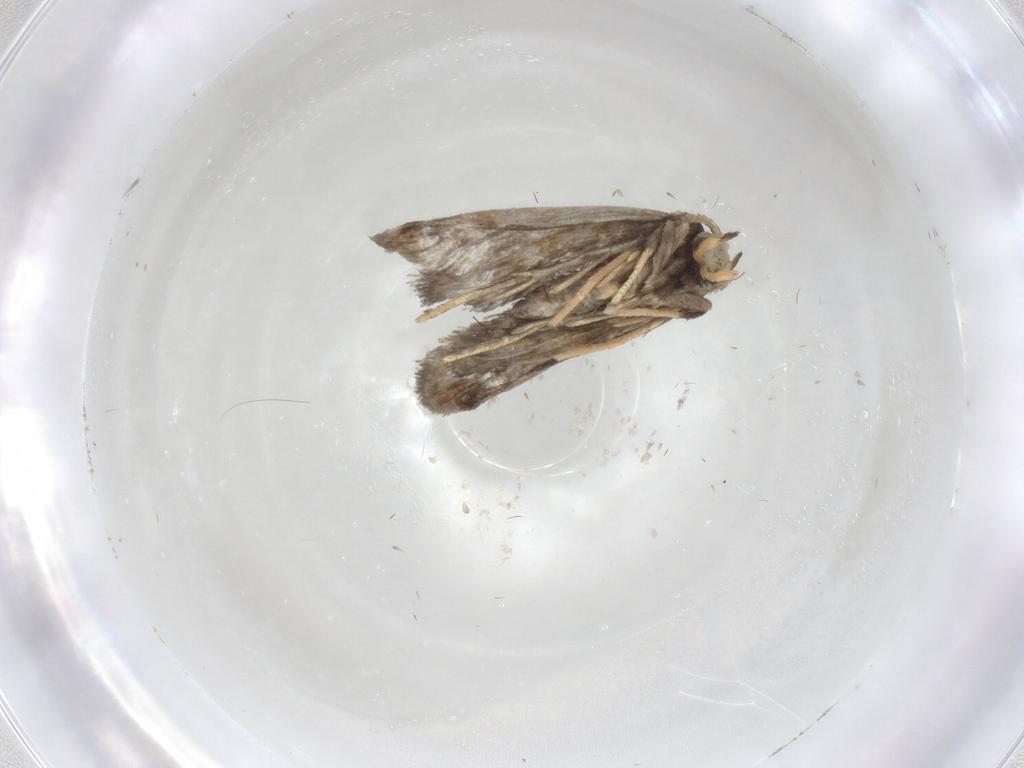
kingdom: Animalia
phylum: Arthropoda
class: Insecta
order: Lepidoptera
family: Psychidae
